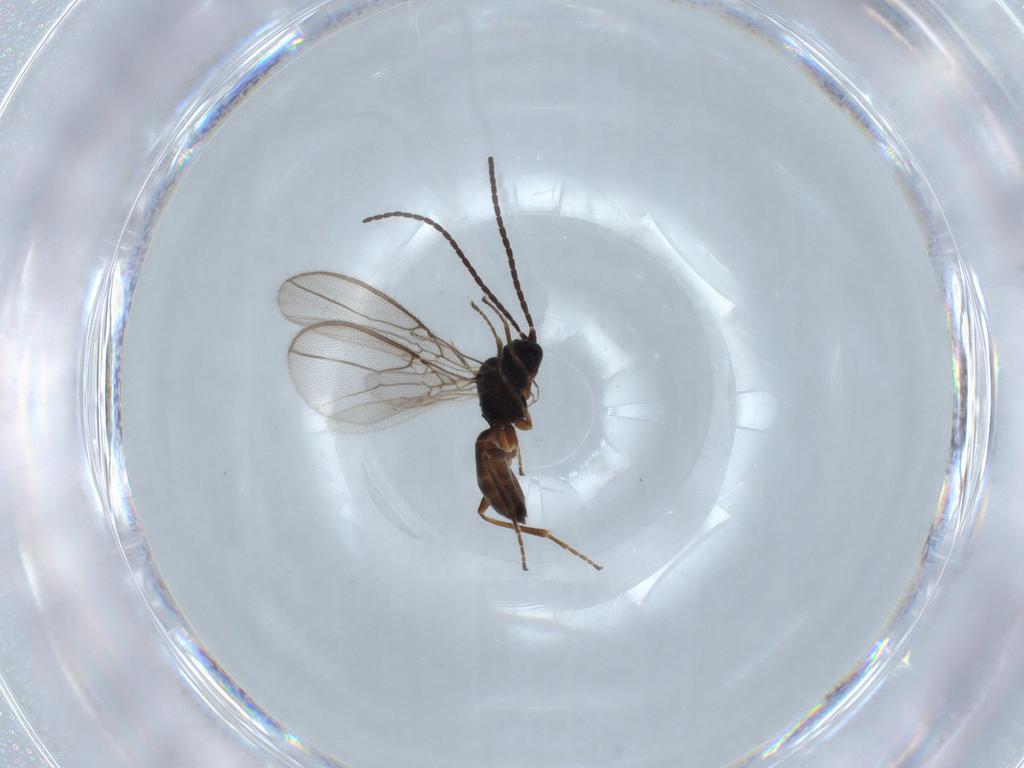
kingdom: Animalia
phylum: Arthropoda
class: Insecta
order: Hymenoptera
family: Braconidae
